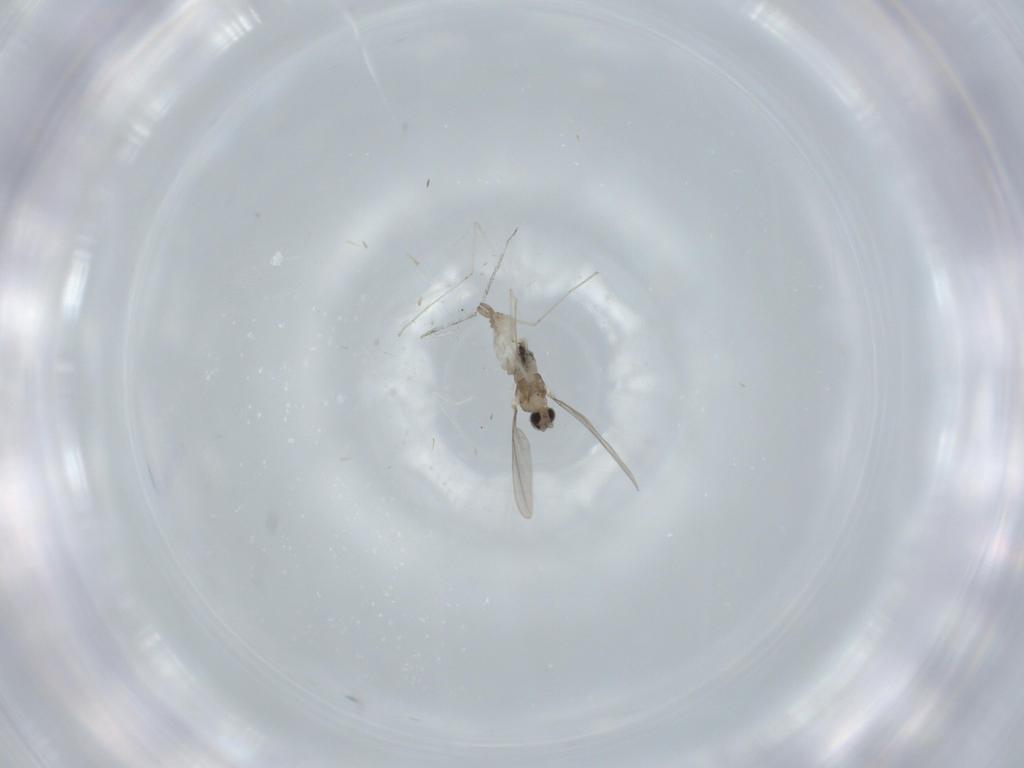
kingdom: Animalia
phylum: Arthropoda
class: Insecta
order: Diptera
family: Cecidomyiidae
